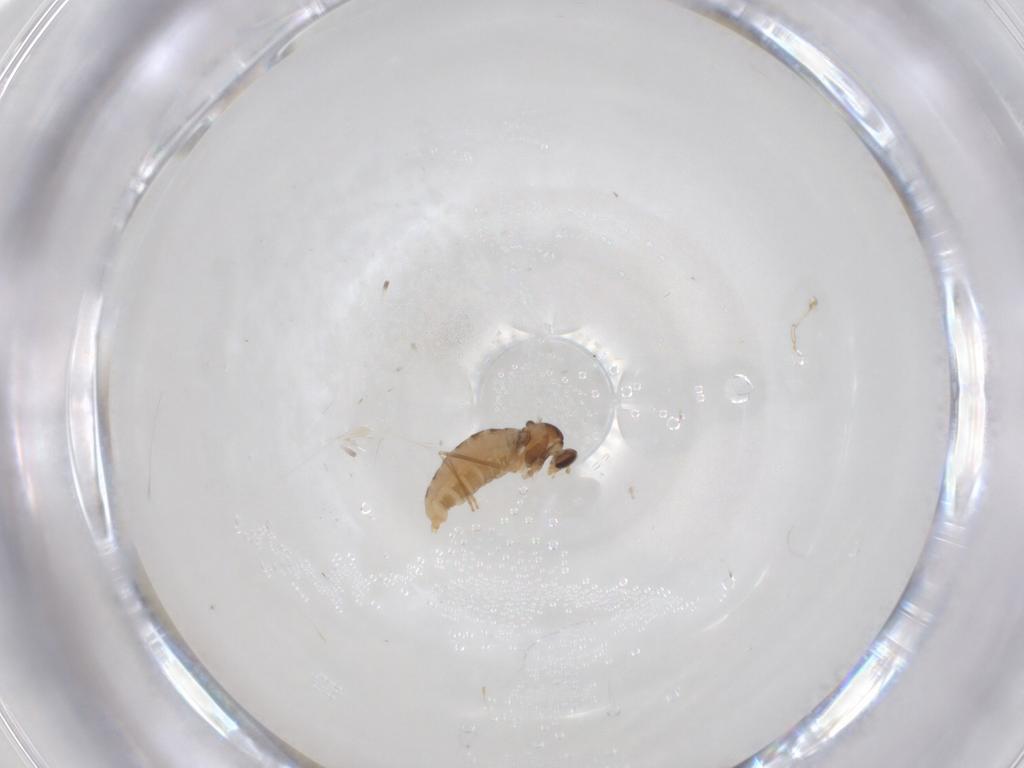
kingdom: Animalia
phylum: Arthropoda
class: Insecta
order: Diptera
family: Cecidomyiidae
